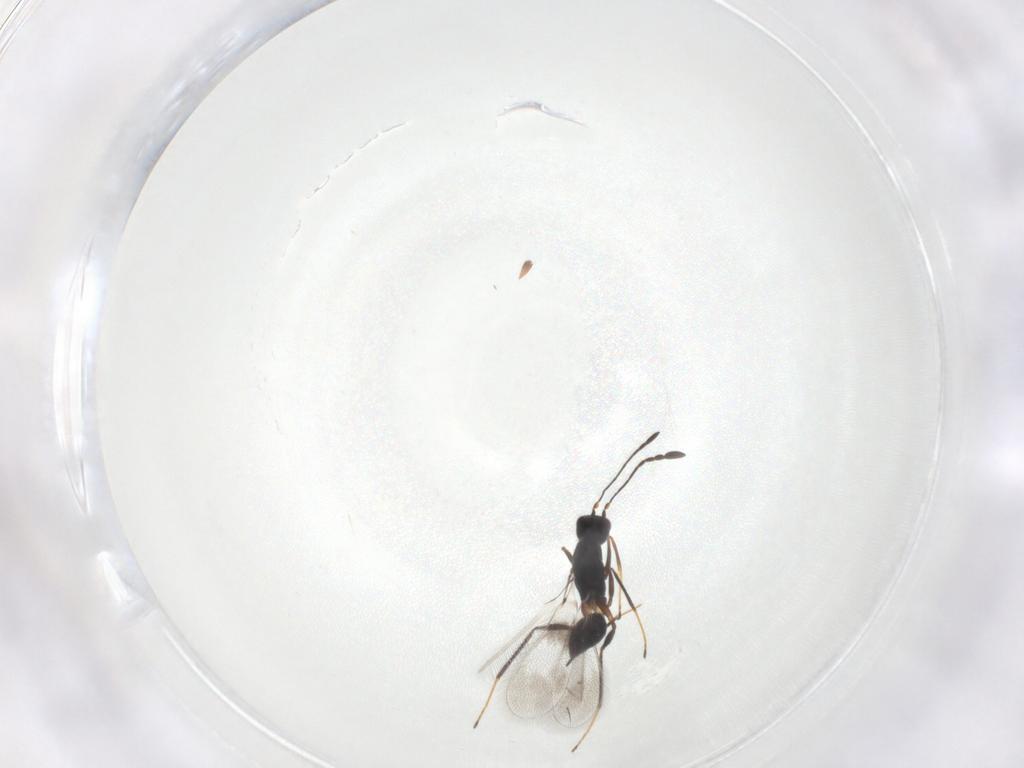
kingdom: Animalia
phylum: Arthropoda
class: Insecta
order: Hymenoptera
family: Mymaridae
